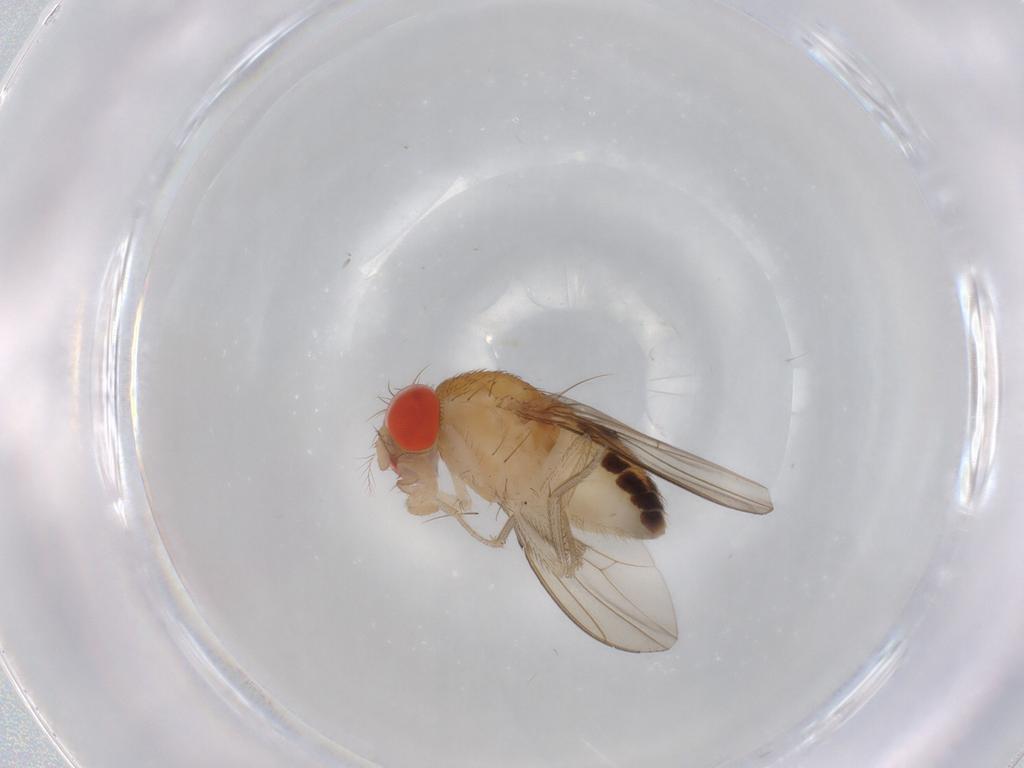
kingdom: Animalia
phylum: Arthropoda
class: Insecta
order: Diptera
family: Drosophilidae
